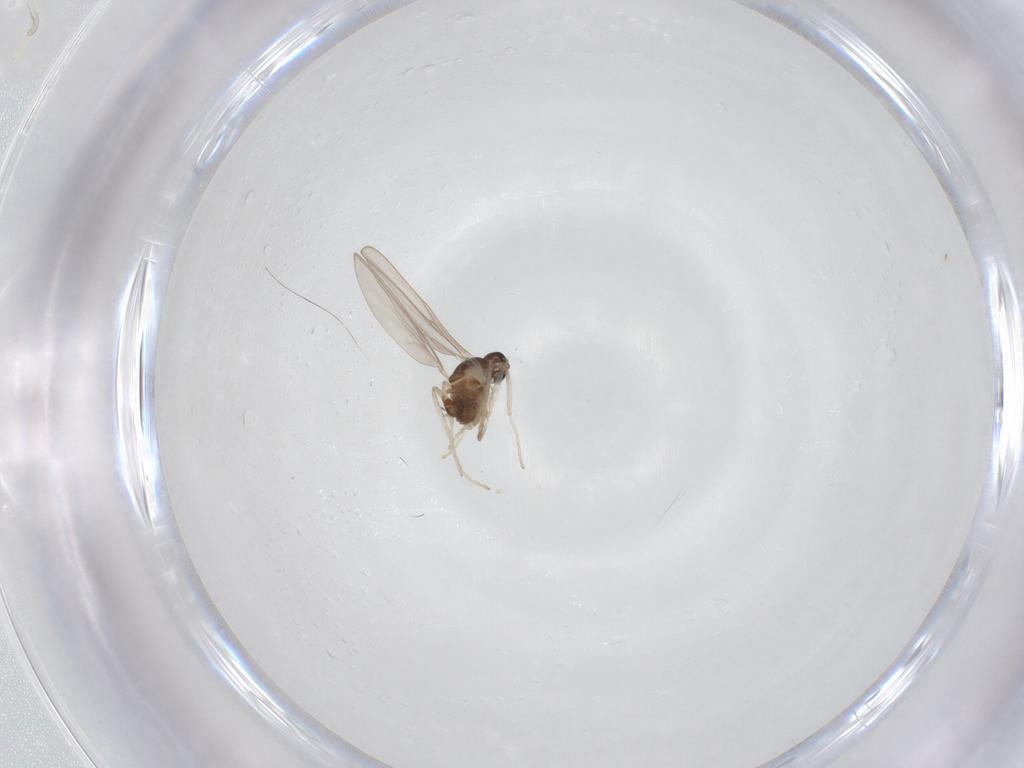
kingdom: Animalia
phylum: Arthropoda
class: Insecta
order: Diptera
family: Cecidomyiidae
